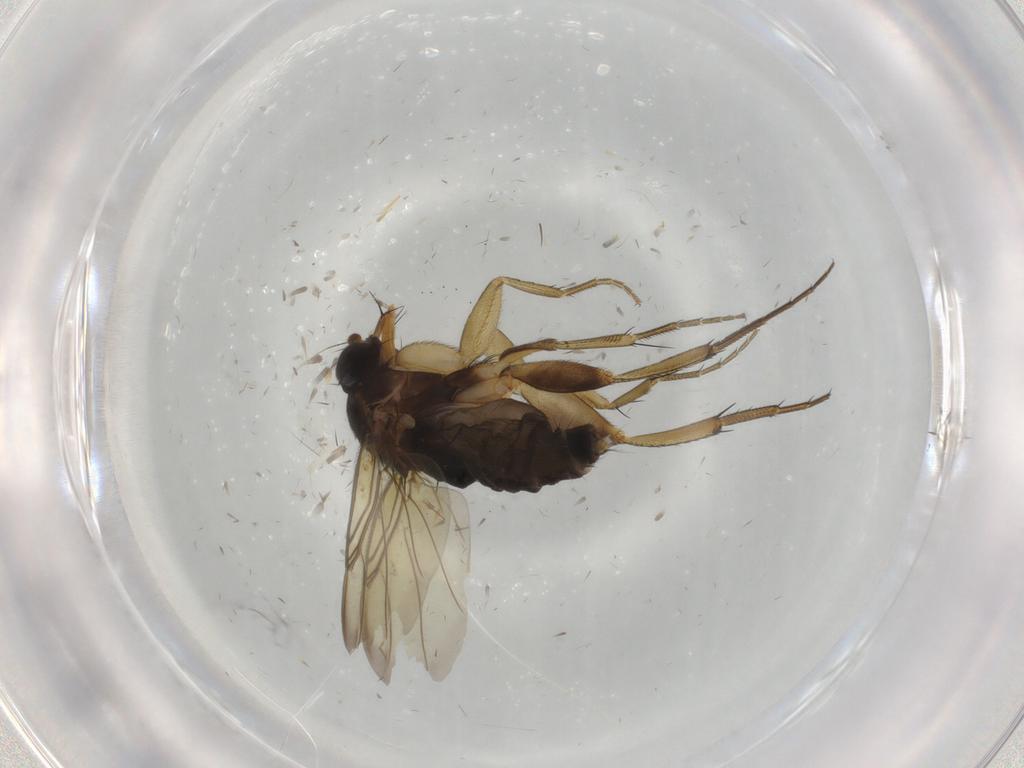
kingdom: Animalia
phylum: Arthropoda
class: Insecta
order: Diptera
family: Phoridae
